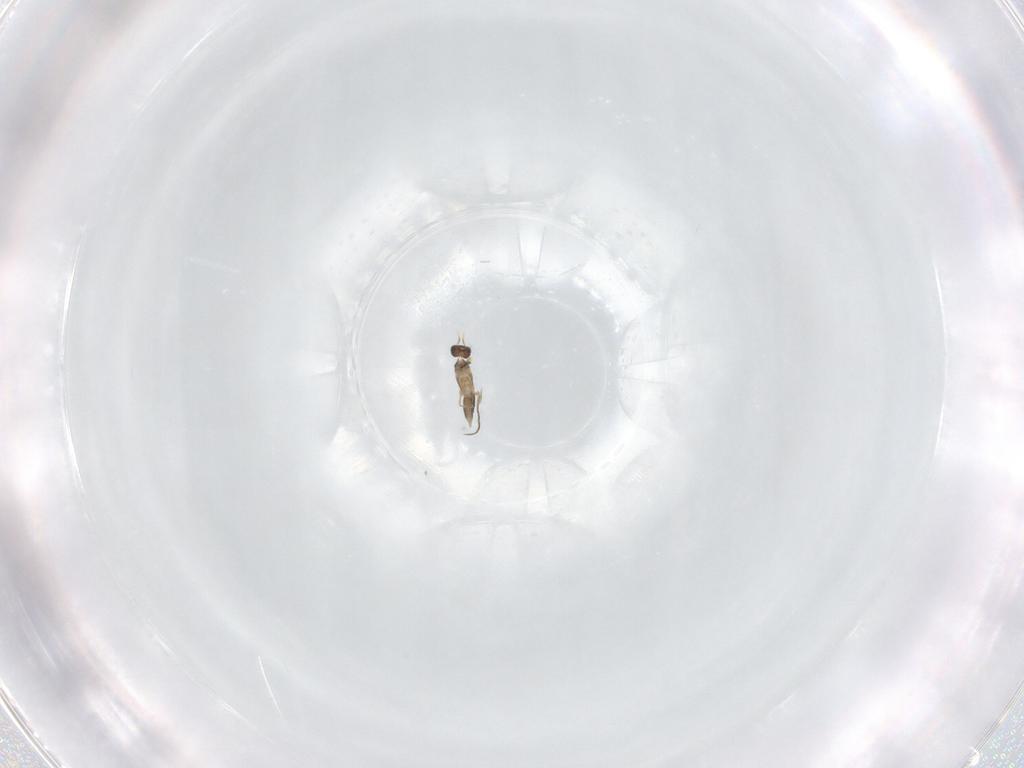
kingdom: Animalia
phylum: Arthropoda
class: Insecta
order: Hymenoptera
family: Mymaridae
